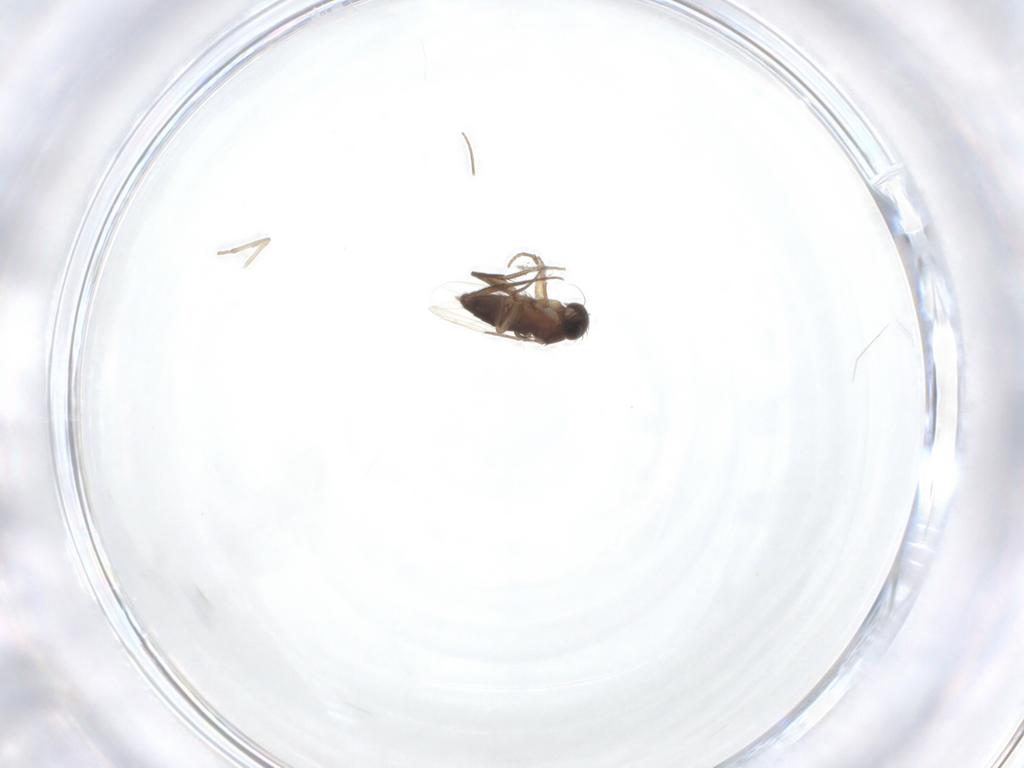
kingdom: Animalia
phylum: Arthropoda
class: Insecta
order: Diptera
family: Phoridae
